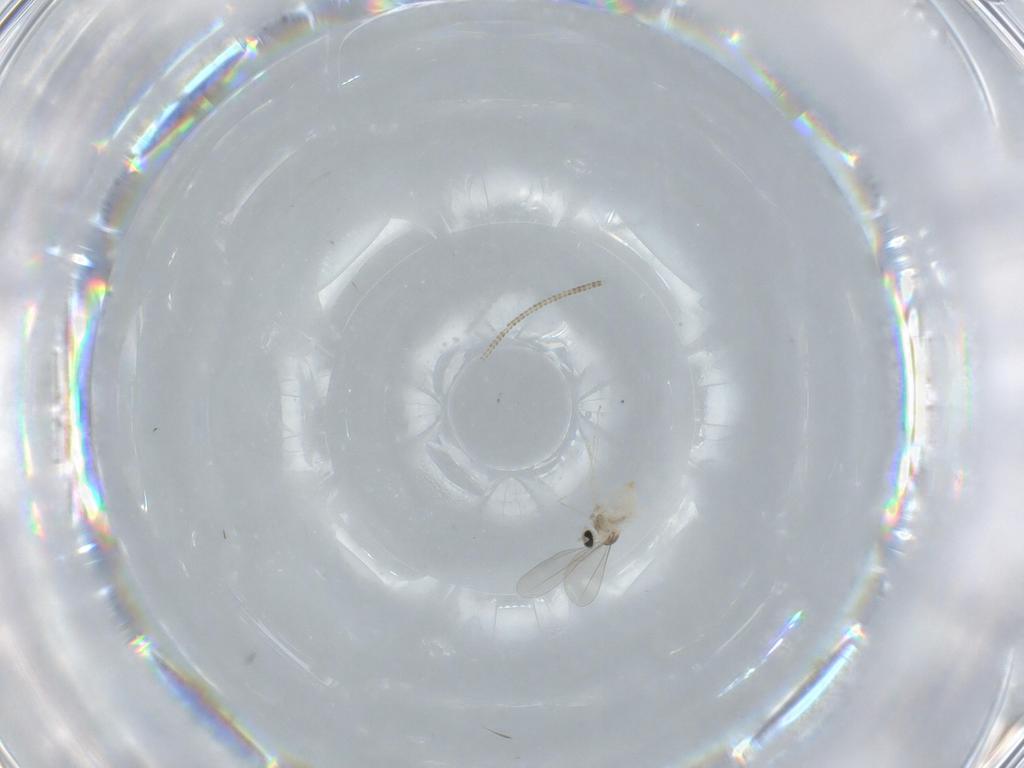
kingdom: Animalia
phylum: Arthropoda
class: Insecta
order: Diptera
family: Cecidomyiidae
